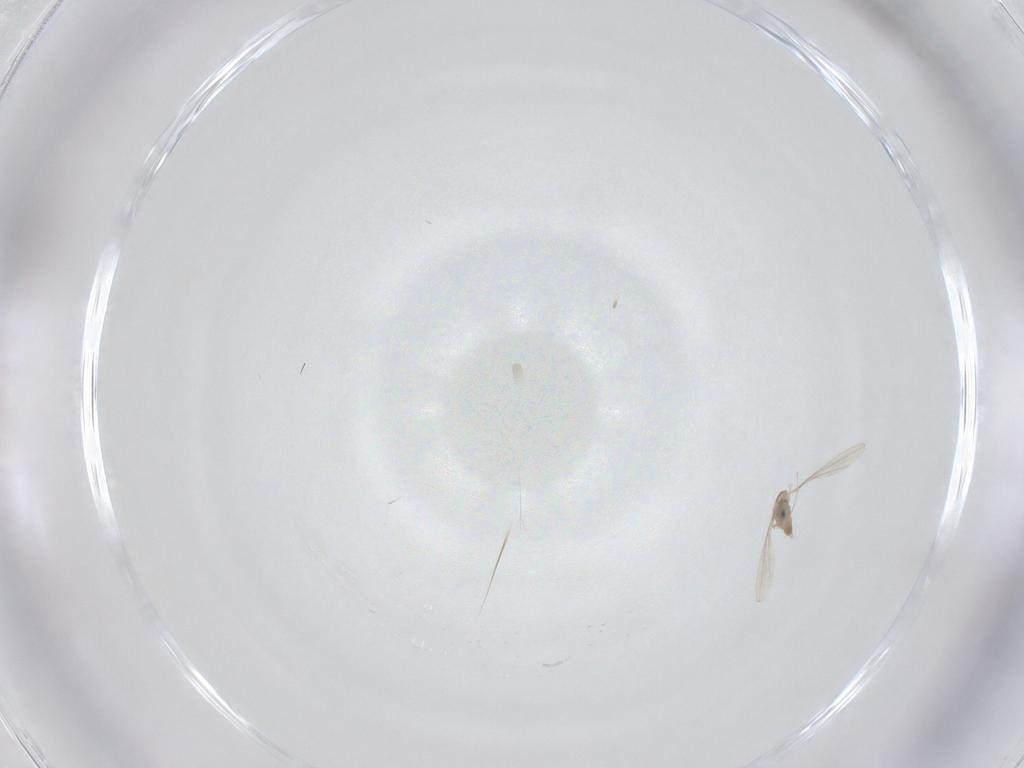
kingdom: Animalia
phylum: Arthropoda
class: Insecta
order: Diptera
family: Cecidomyiidae
